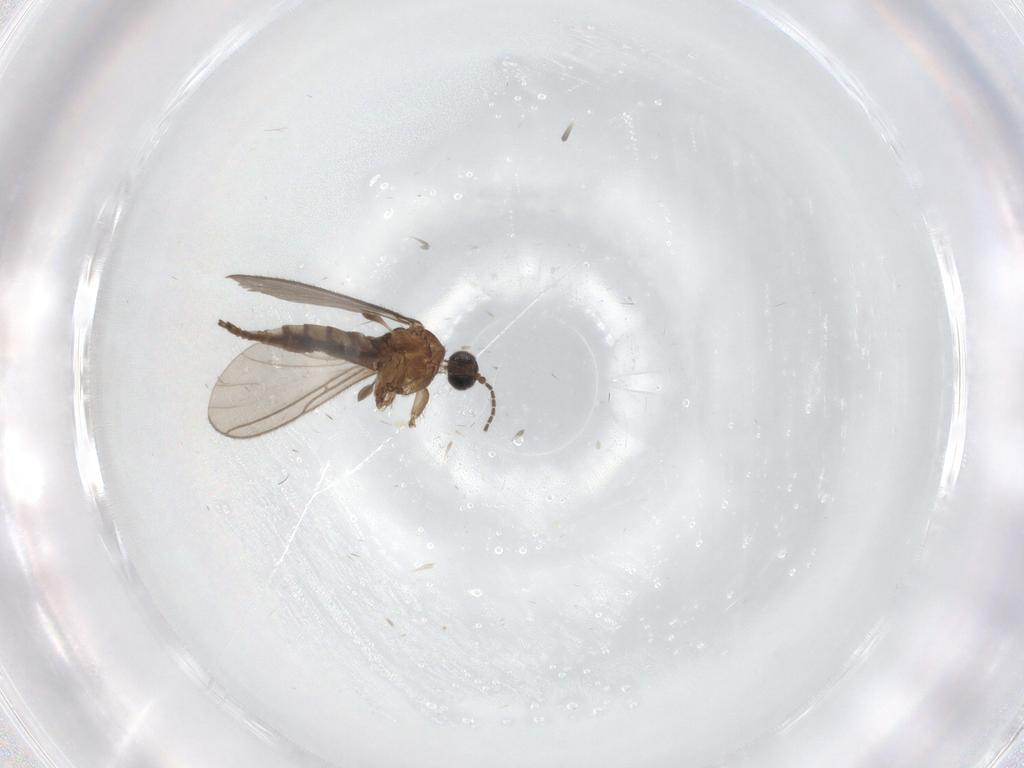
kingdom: Animalia
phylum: Arthropoda
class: Insecta
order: Diptera
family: Sciaridae
